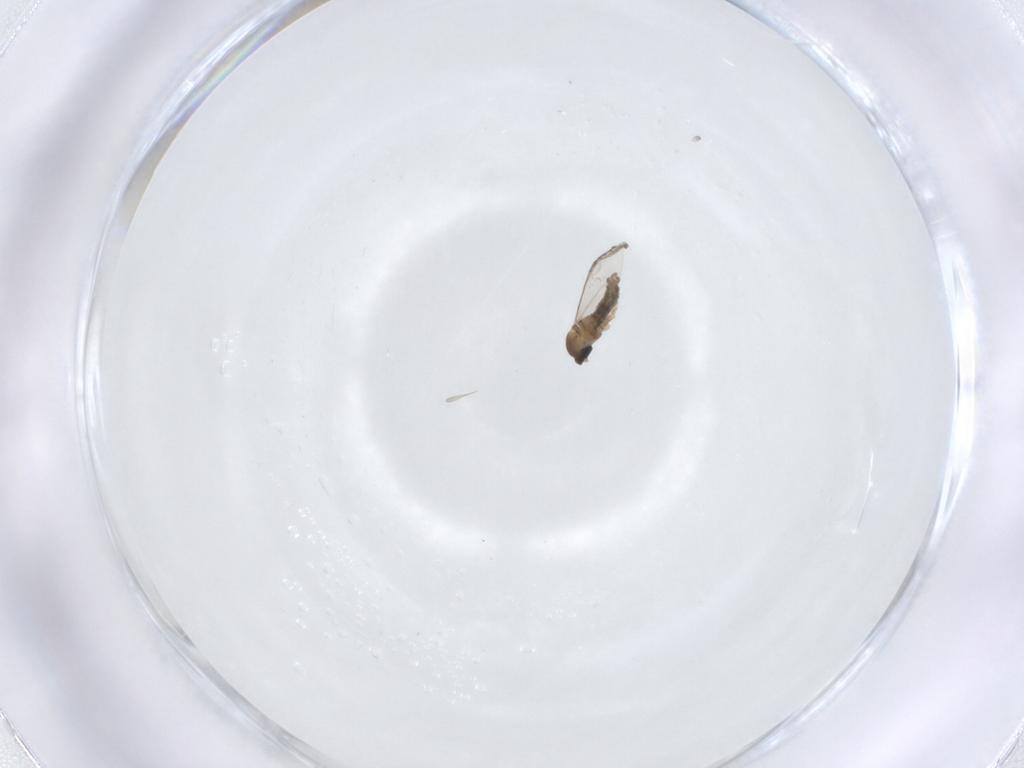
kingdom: Animalia
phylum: Arthropoda
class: Insecta
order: Diptera
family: Cecidomyiidae
